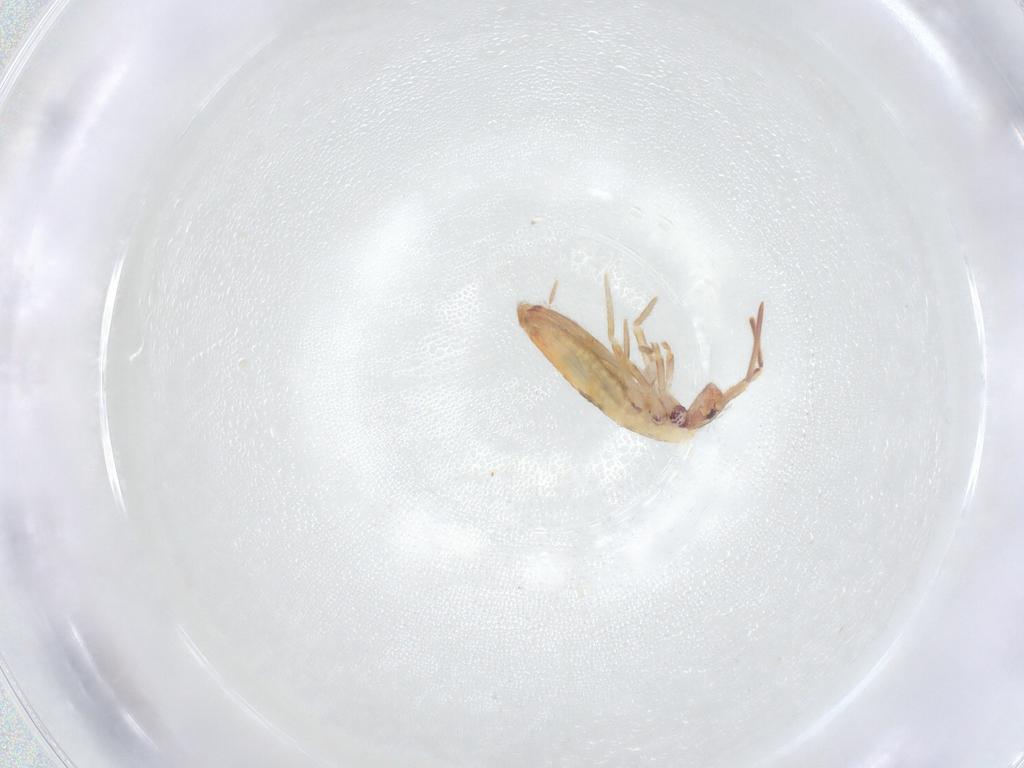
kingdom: Animalia
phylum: Arthropoda
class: Collembola
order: Entomobryomorpha
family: Entomobryidae
